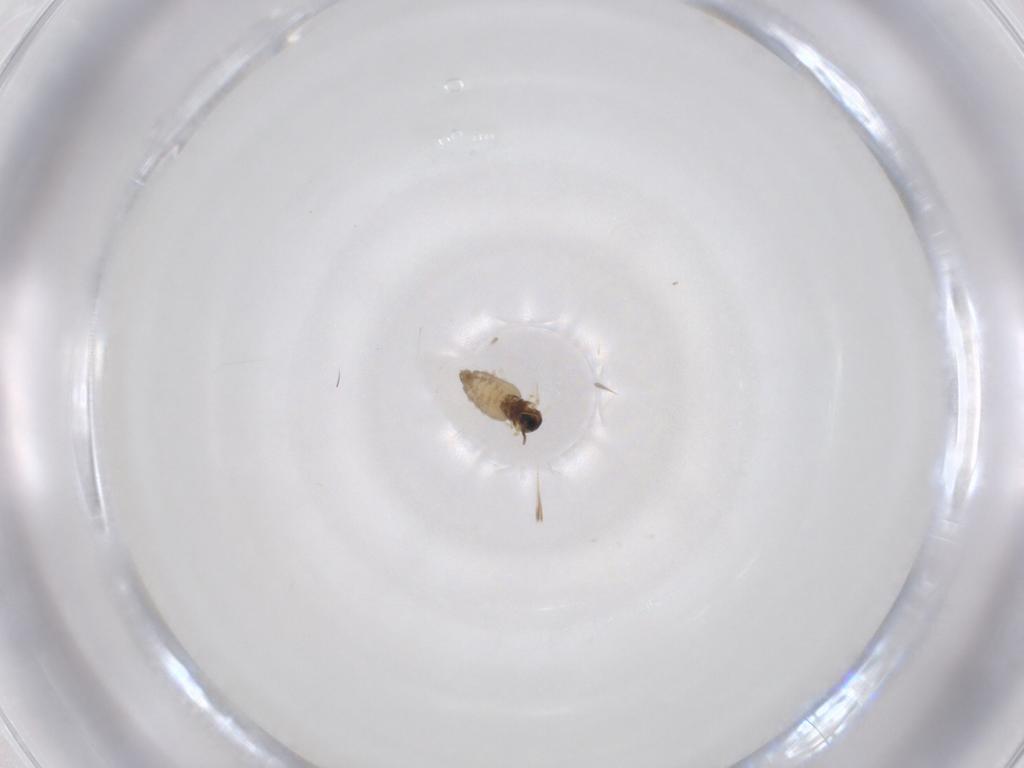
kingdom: Animalia
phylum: Arthropoda
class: Insecta
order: Diptera
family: Cecidomyiidae
